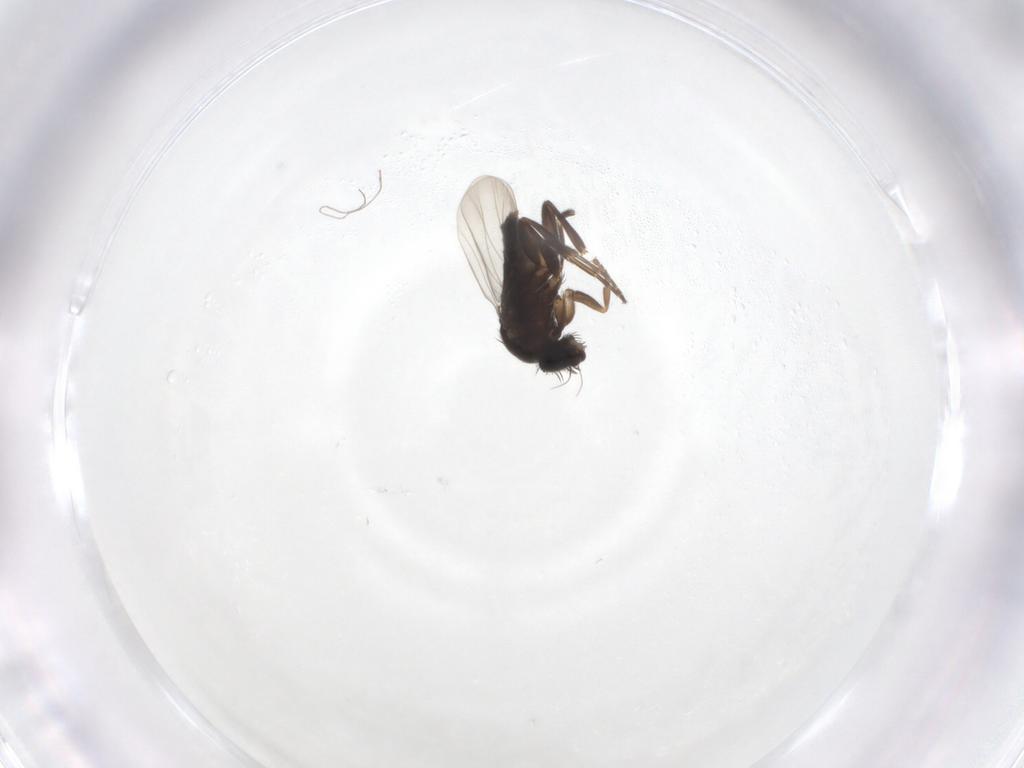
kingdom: Animalia
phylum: Arthropoda
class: Insecta
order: Diptera
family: Phoridae
